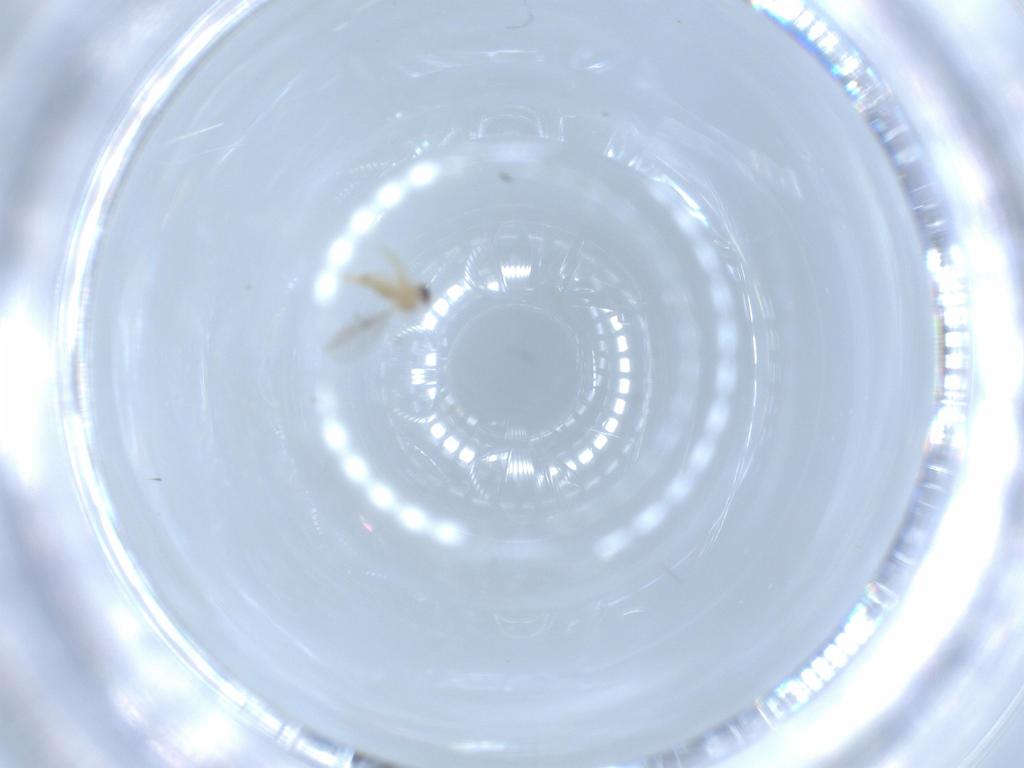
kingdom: Animalia
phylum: Arthropoda
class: Insecta
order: Diptera
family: Cecidomyiidae
